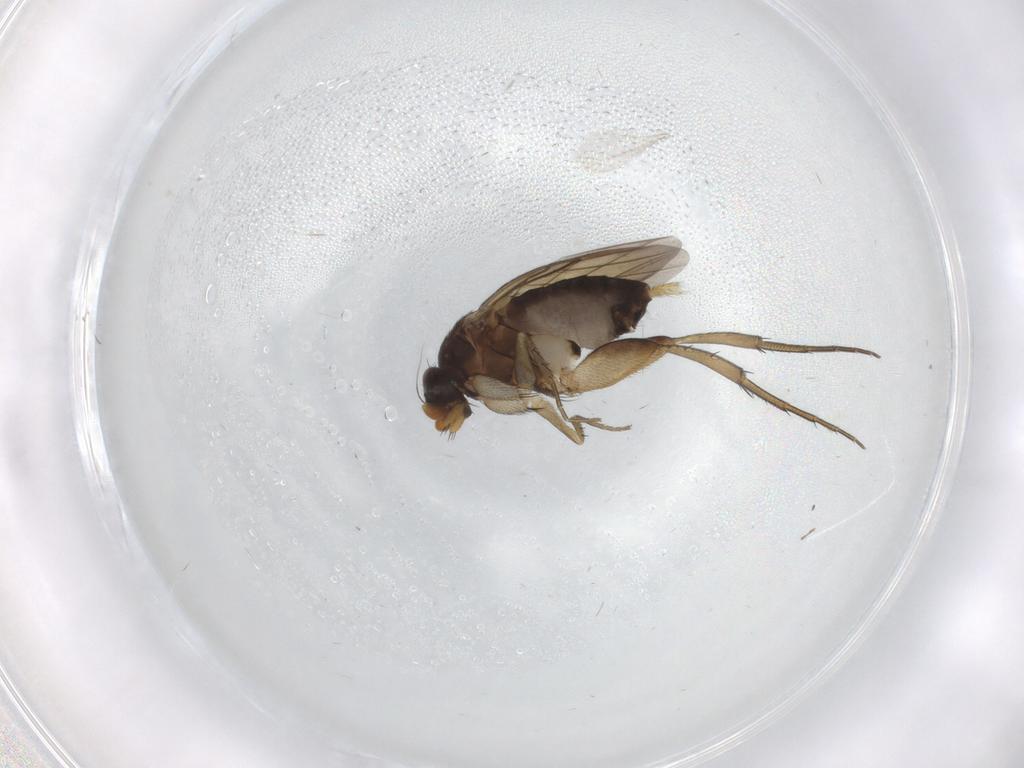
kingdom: Animalia
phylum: Arthropoda
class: Insecta
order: Diptera
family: Phoridae
